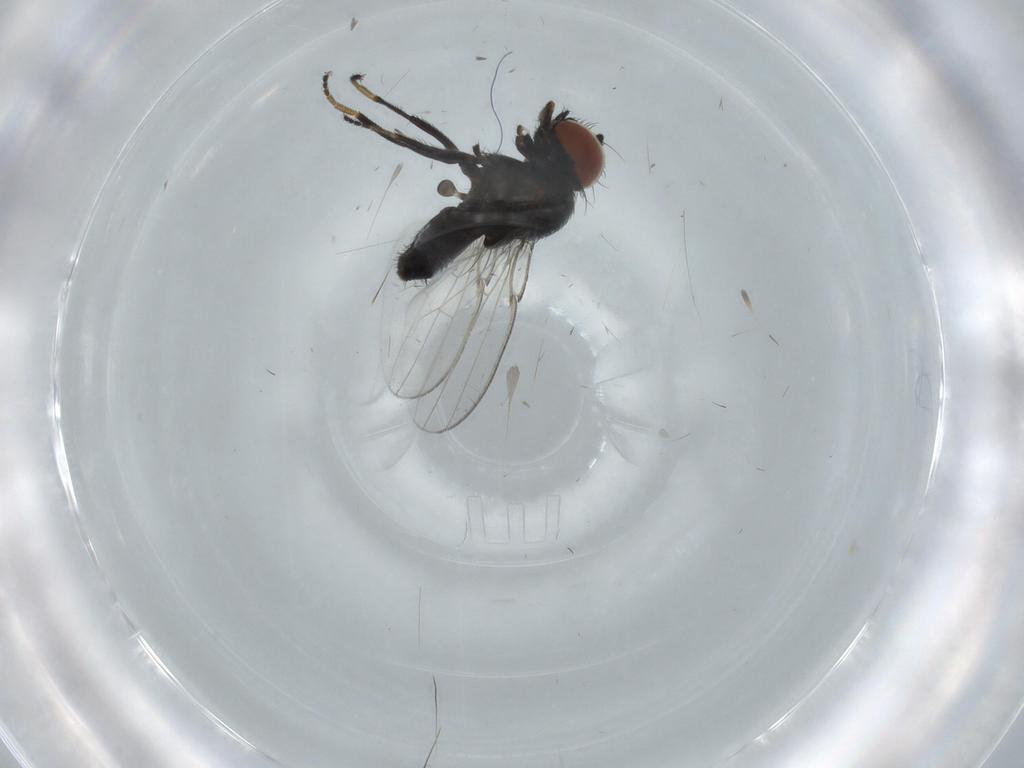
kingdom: Animalia
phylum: Arthropoda
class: Insecta
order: Diptera
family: Milichiidae
